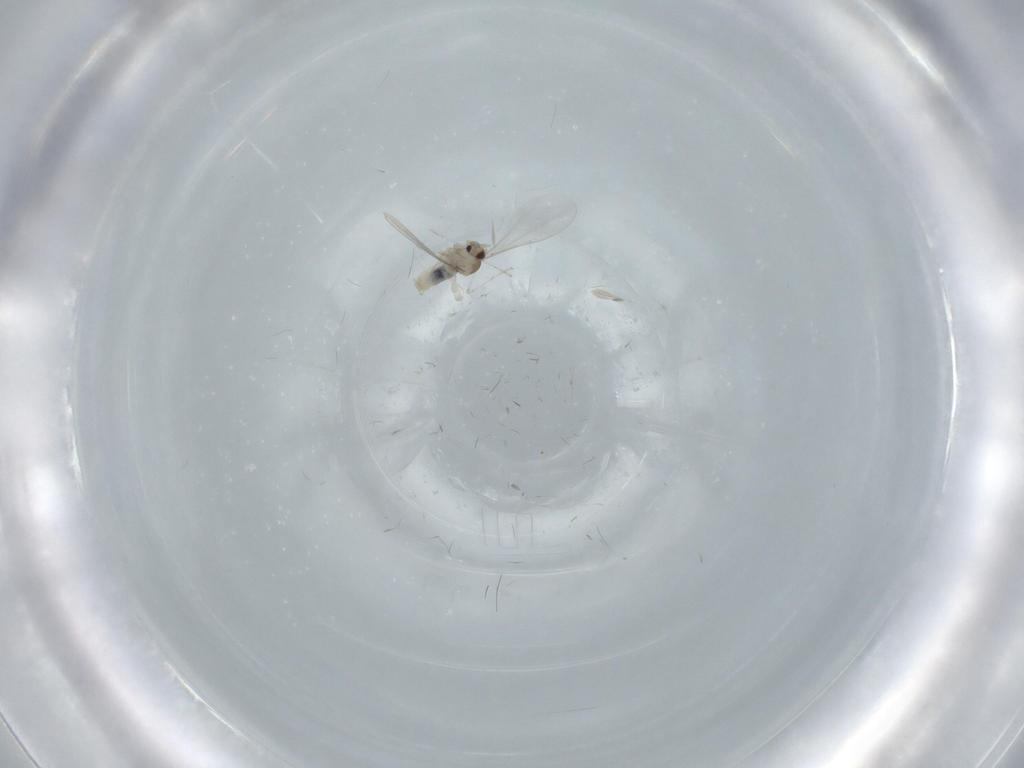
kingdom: Animalia
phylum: Arthropoda
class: Insecta
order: Diptera
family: Cecidomyiidae
